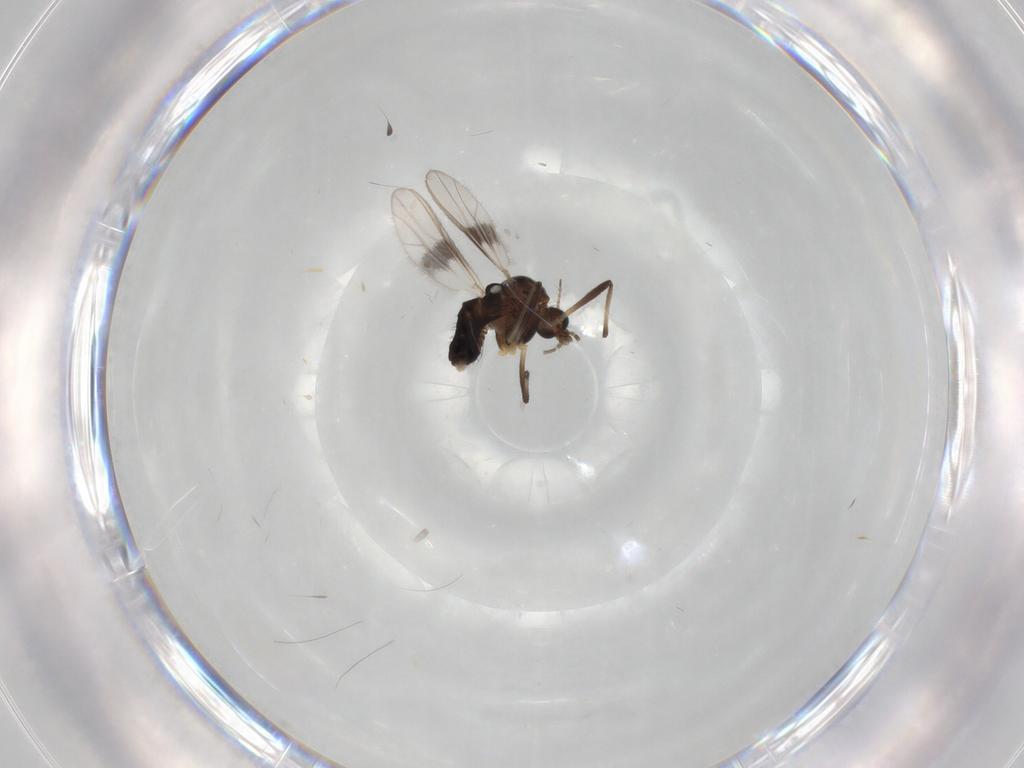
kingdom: Animalia
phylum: Arthropoda
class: Insecta
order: Diptera
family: Chironomidae
